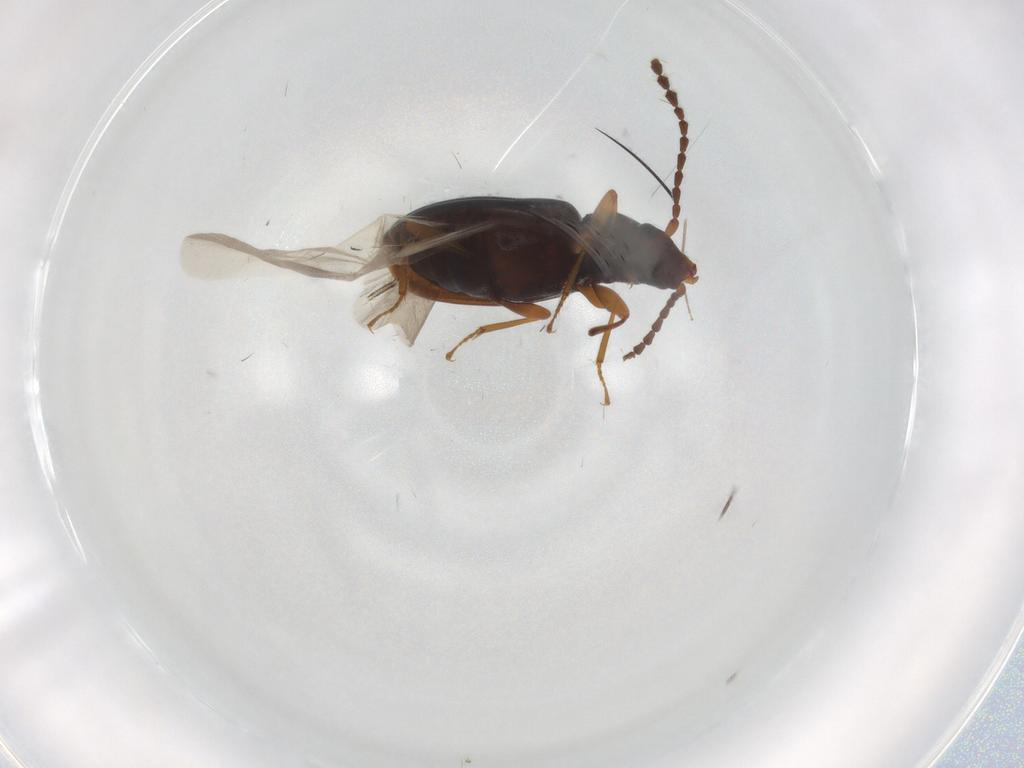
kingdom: Animalia
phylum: Arthropoda
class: Insecta
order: Coleoptera
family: Laemophloeidae
